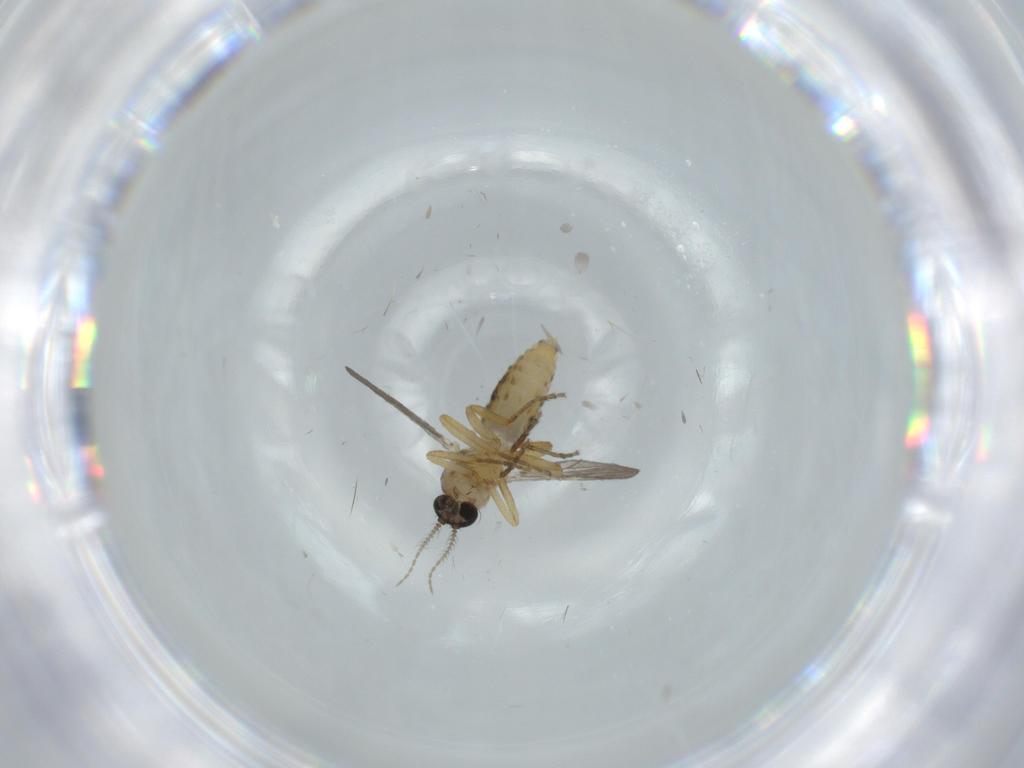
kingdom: Animalia
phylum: Arthropoda
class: Insecta
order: Diptera
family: Ceratopogonidae
